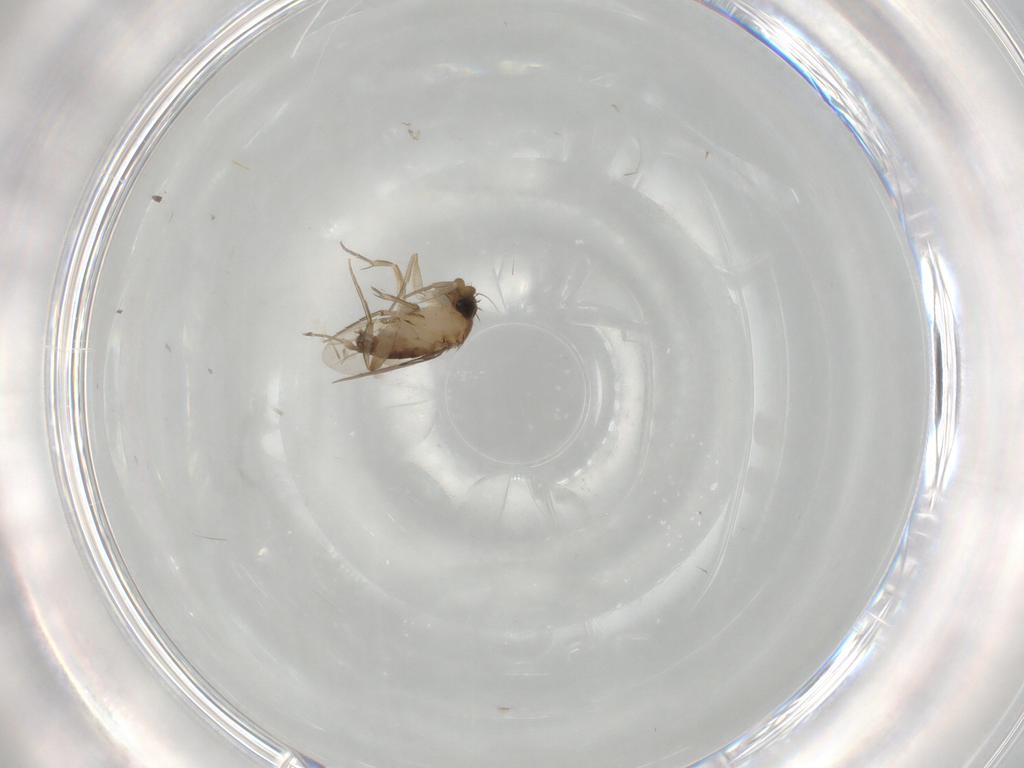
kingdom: Animalia
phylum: Arthropoda
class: Insecta
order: Diptera
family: Phoridae
